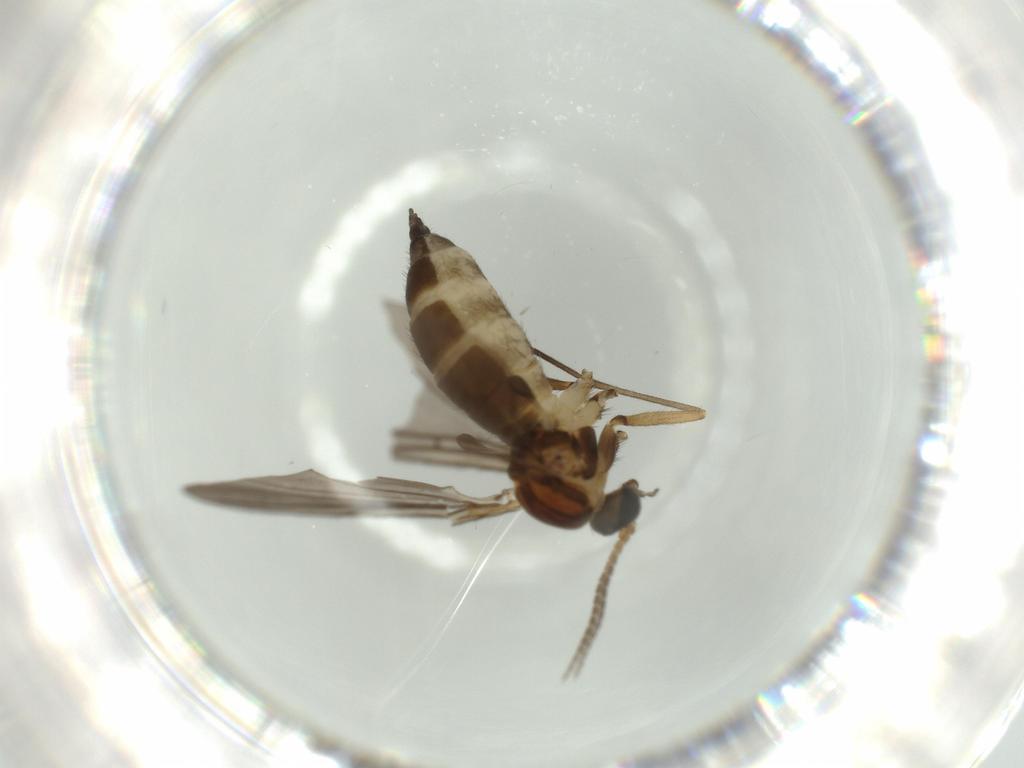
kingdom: Animalia
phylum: Arthropoda
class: Insecta
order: Diptera
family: Sciaridae
